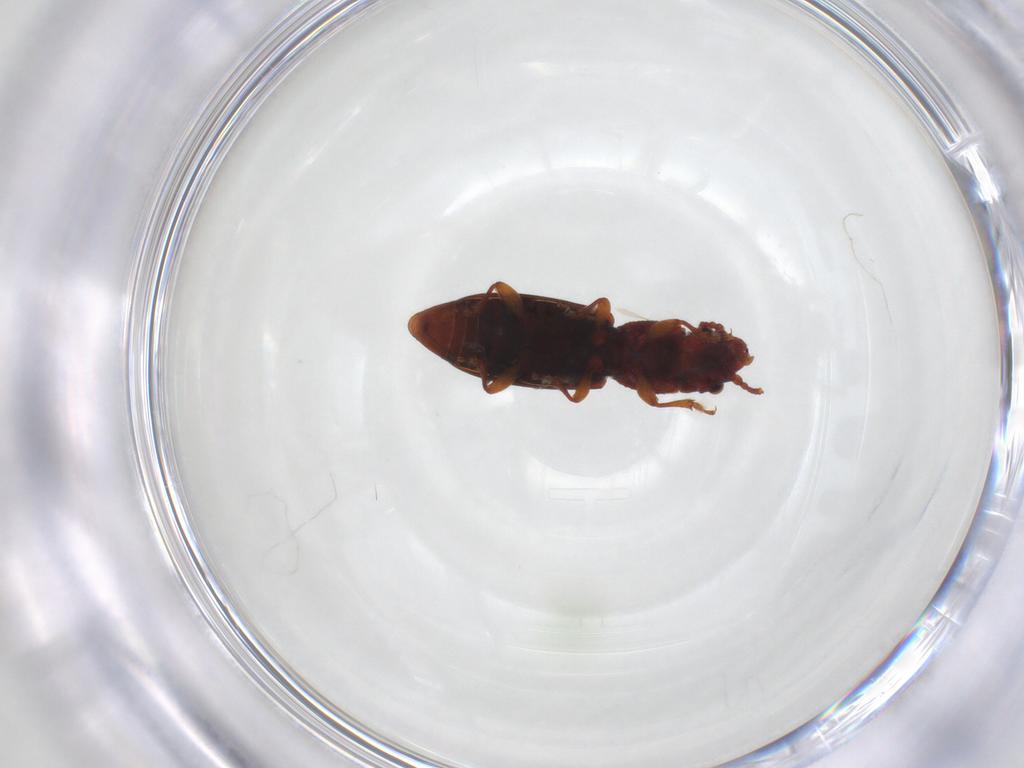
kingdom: Animalia
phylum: Arthropoda
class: Insecta
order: Coleoptera
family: Monotomidae
